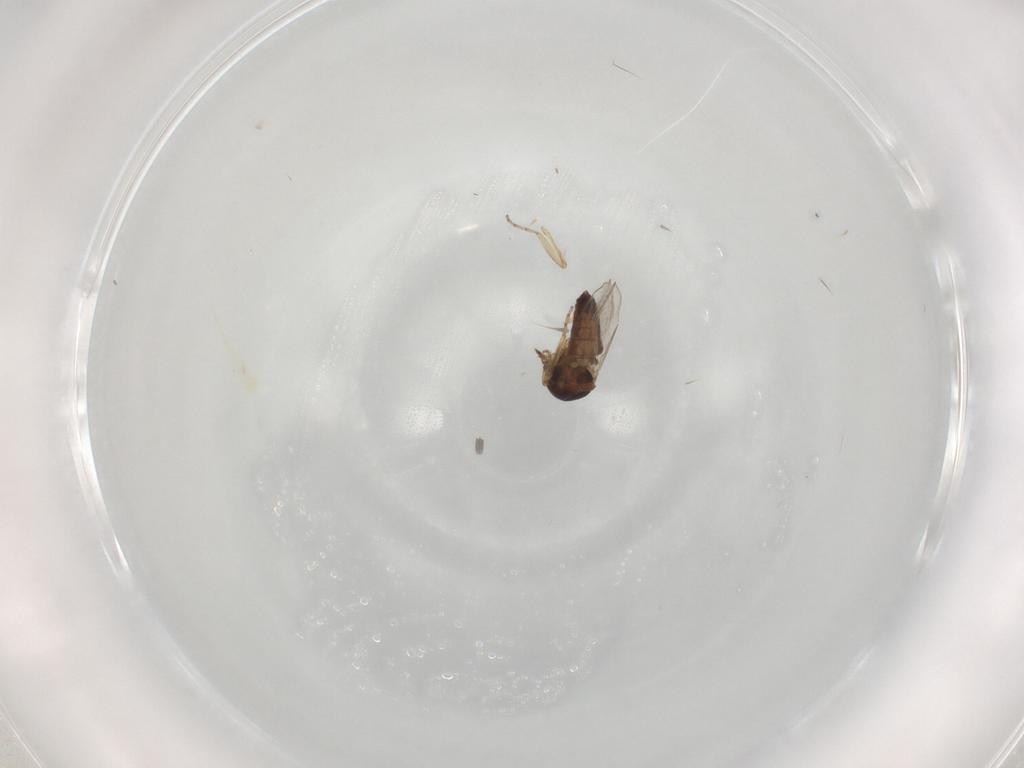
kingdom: Animalia
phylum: Arthropoda
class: Insecta
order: Diptera
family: Ceratopogonidae
